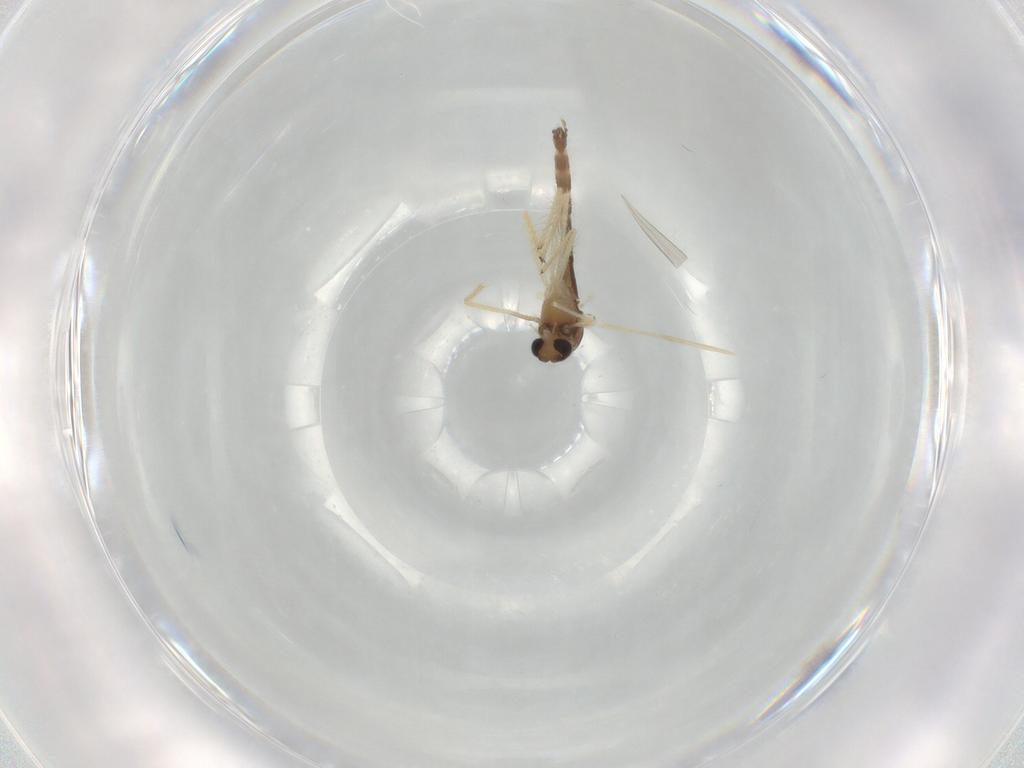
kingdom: Animalia
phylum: Arthropoda
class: Insecta
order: Diptera
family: Chironomidae
